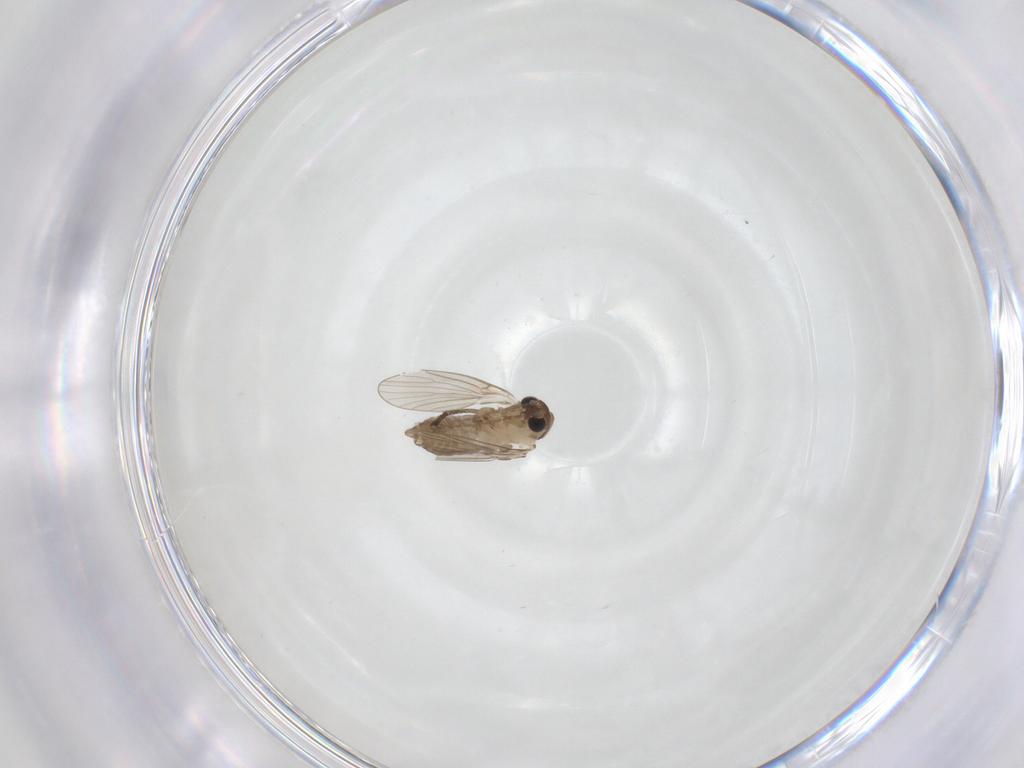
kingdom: Animalia
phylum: Arthropoda
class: Insecta
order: Diptera
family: Psychodidae
